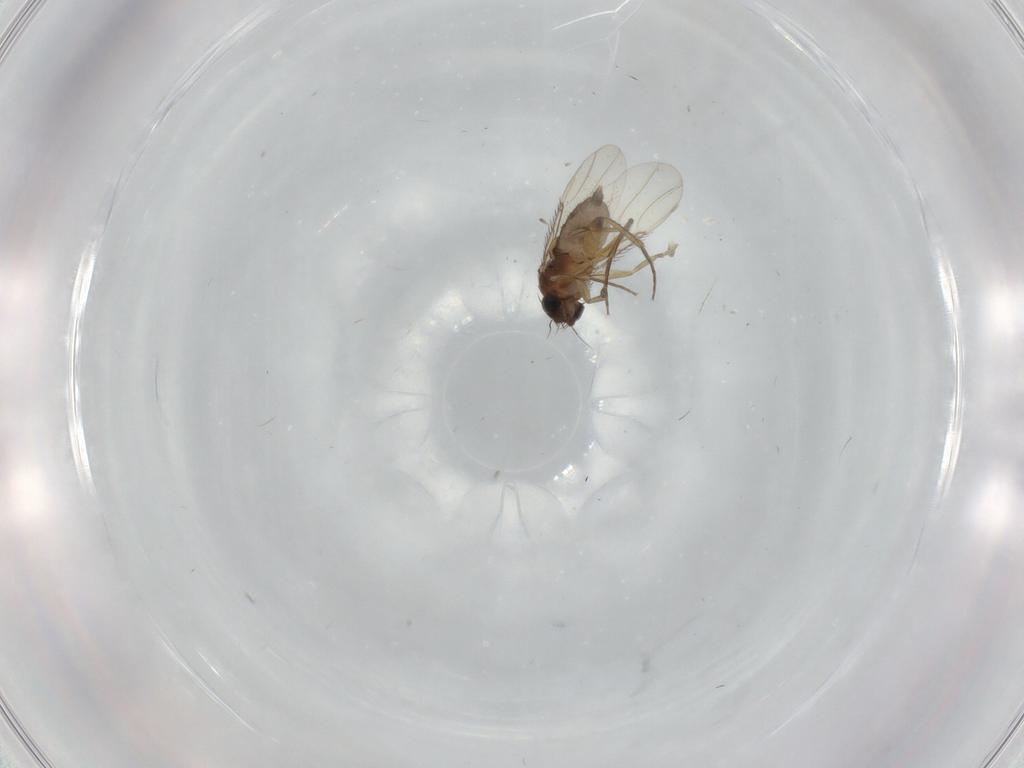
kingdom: Animalia
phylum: Arthropoda
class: Insecta
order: Diptera
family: Phoridae
